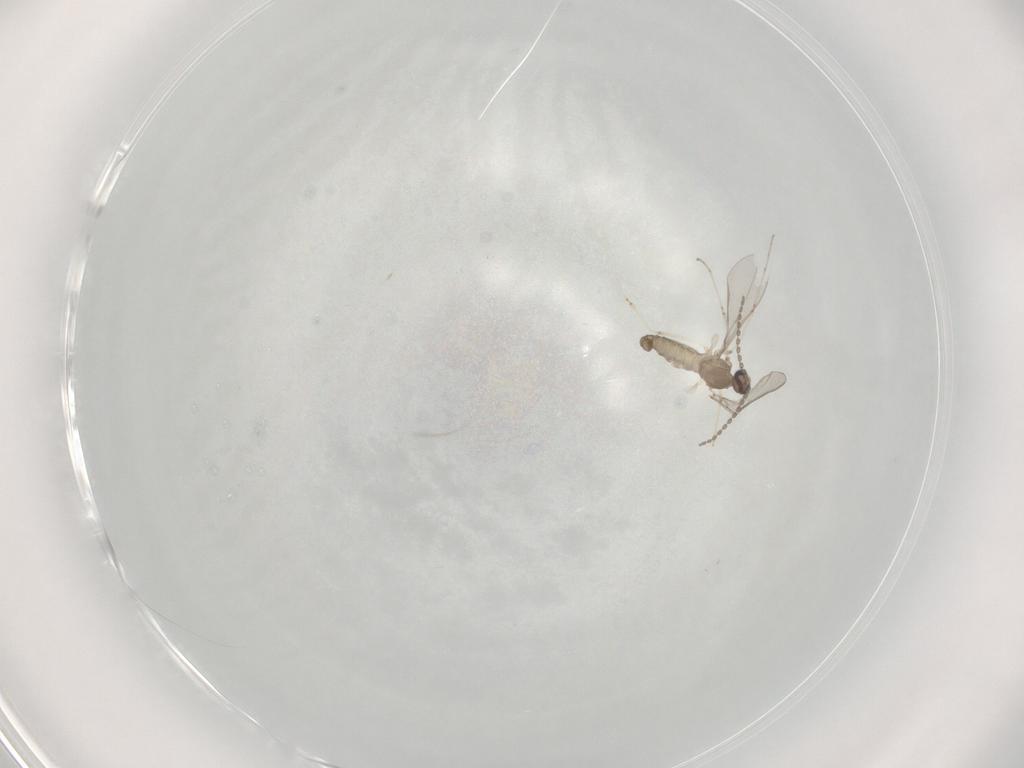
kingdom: Animalia
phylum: Arthropoda
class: Insecta
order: Diptera
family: Cecidomyiidae
